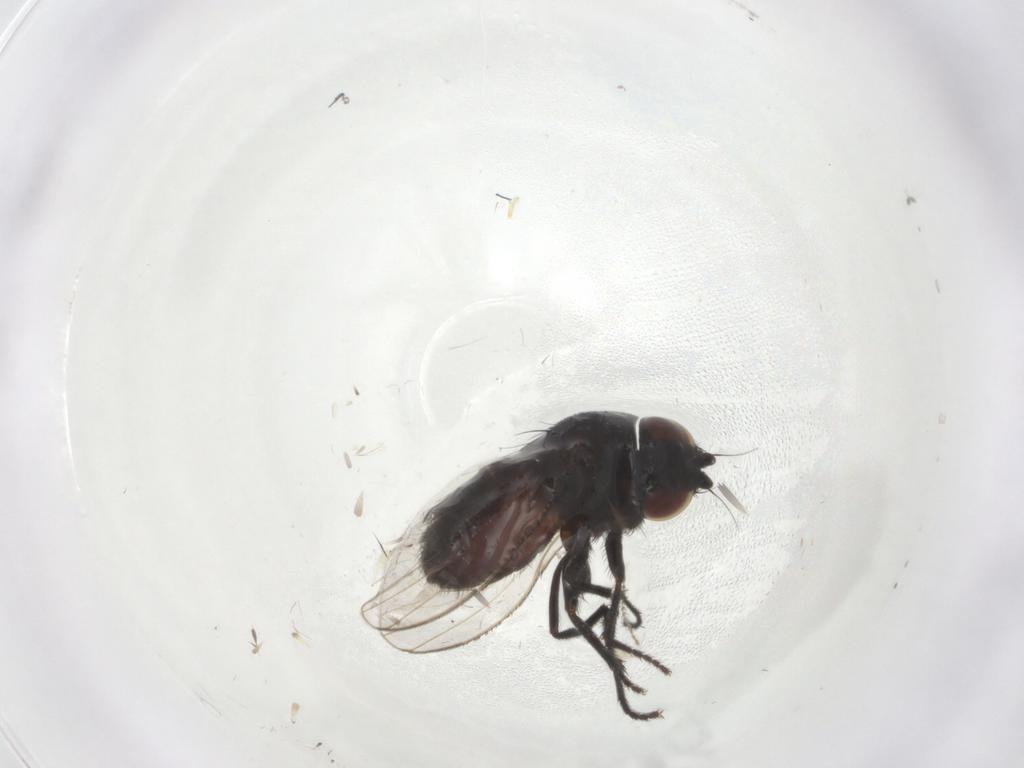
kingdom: Animalia
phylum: Arthropoda
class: Insecta
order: Diptera
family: Milichiidae
